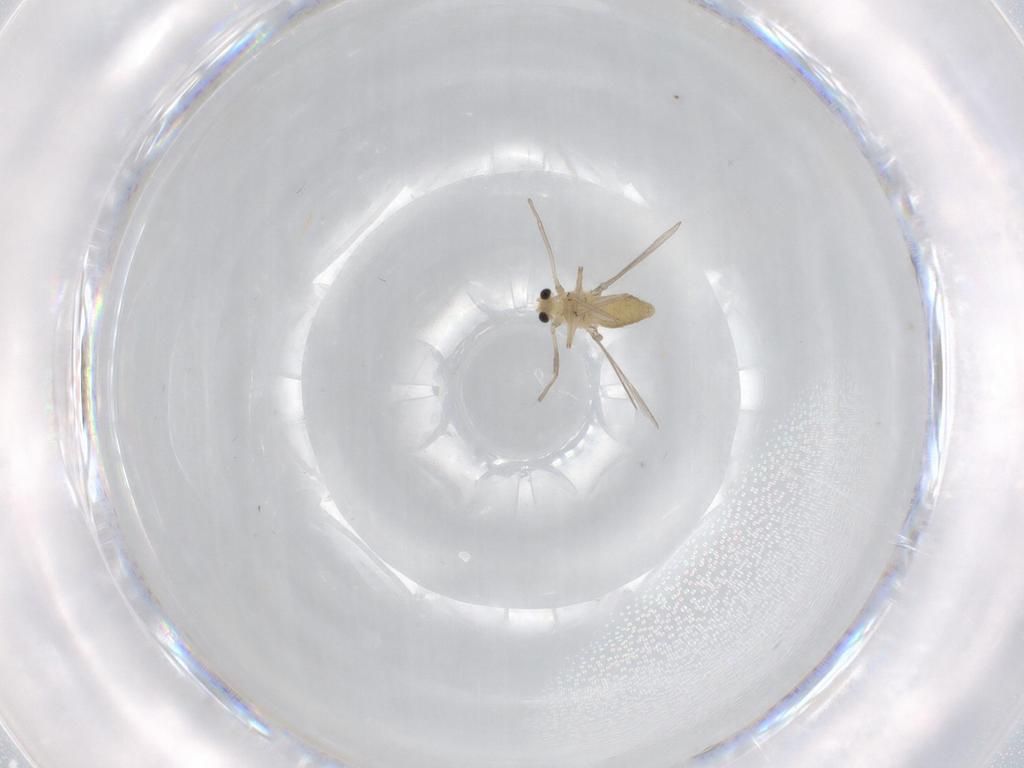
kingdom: Animalia
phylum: Arthropoda
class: Insecta
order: Diptera
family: Chironomidae
